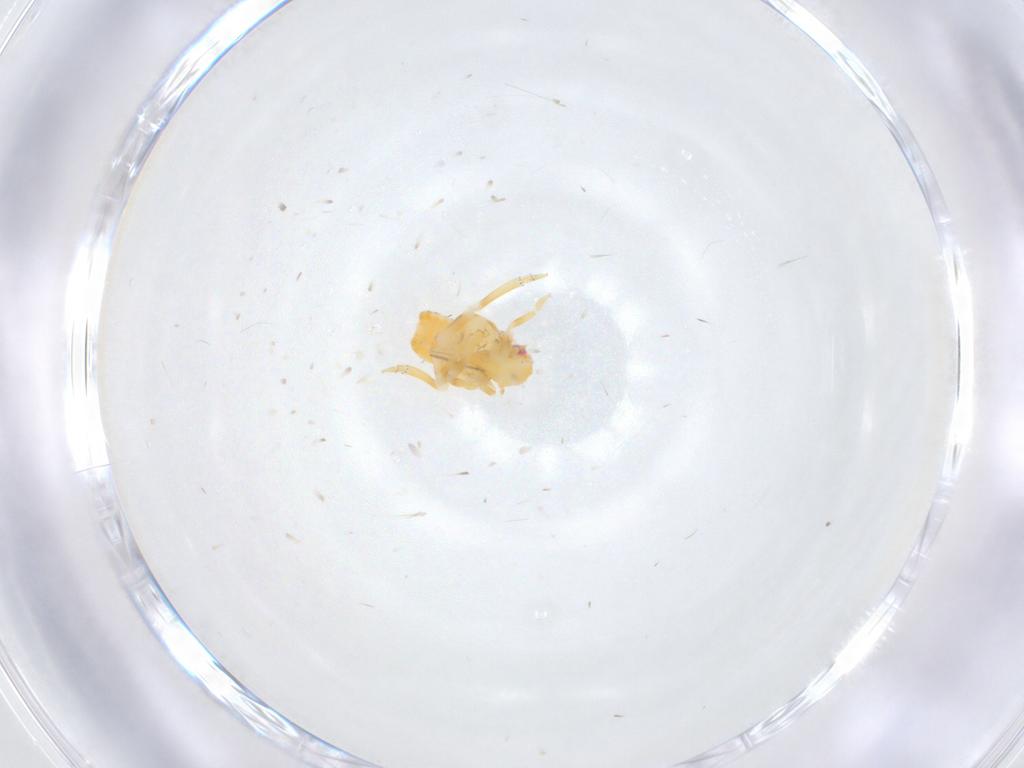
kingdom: Animalia
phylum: Arthropoda
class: Insecta
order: Hemiptera
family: Flatidae
